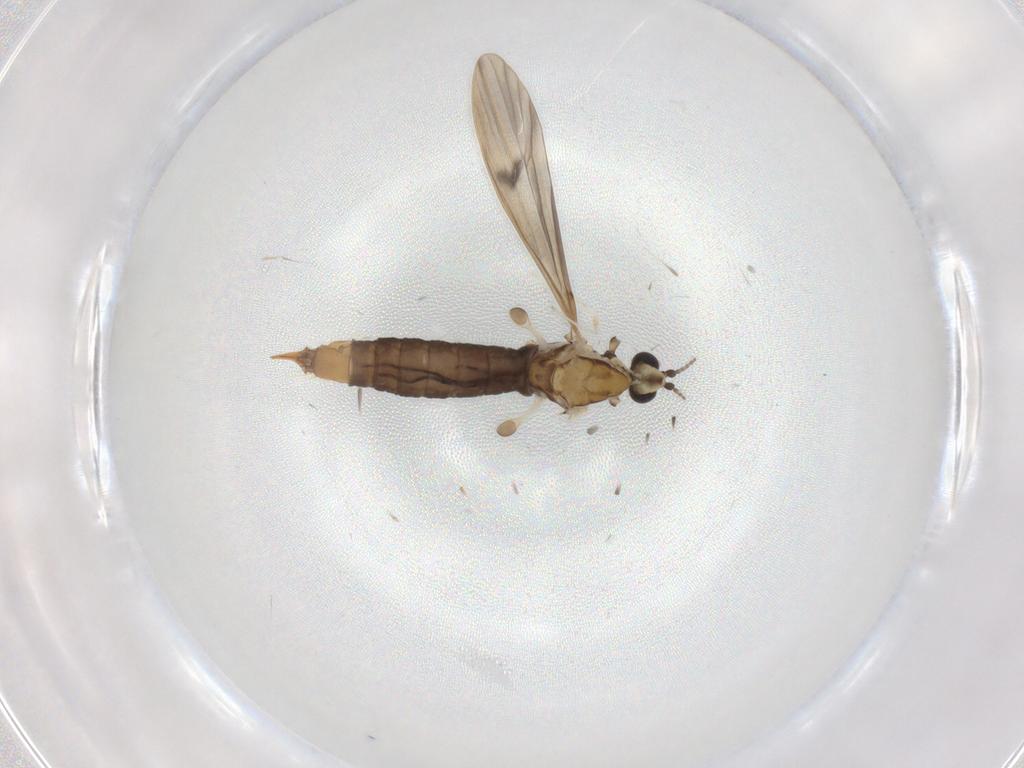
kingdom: Animalia
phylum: Arthropoda
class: Insecta
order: Diptera
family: Limoniidae
